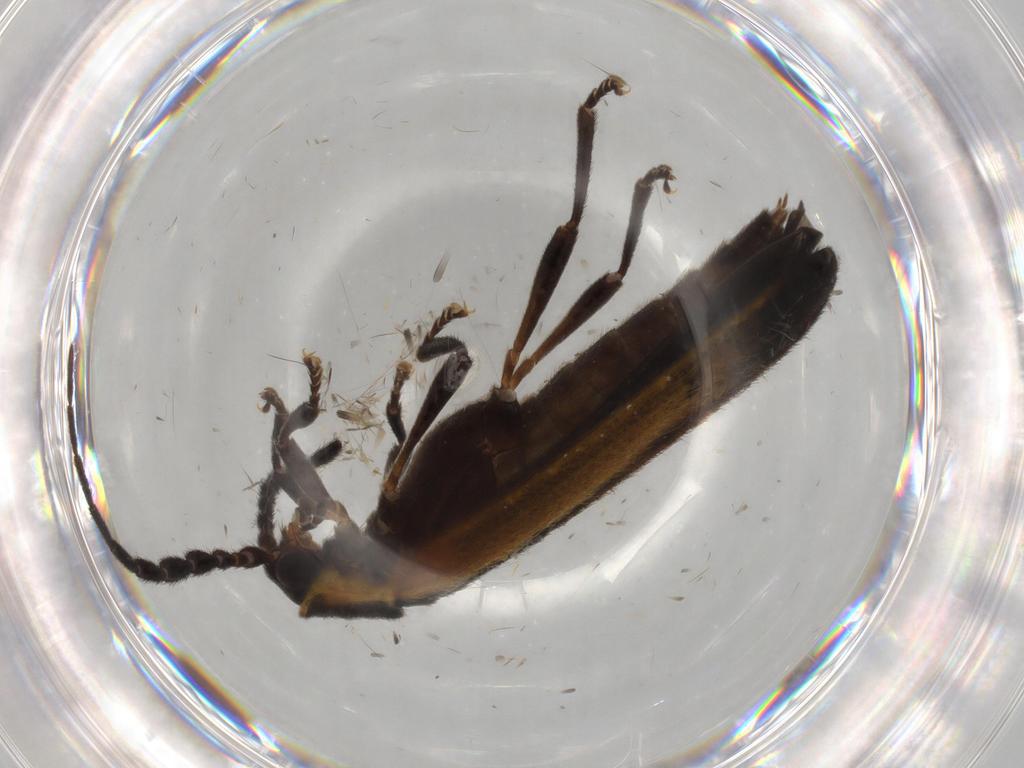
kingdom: Animalia
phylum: Arthropoda
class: Insecta
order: Coleoptera
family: Lycidae
